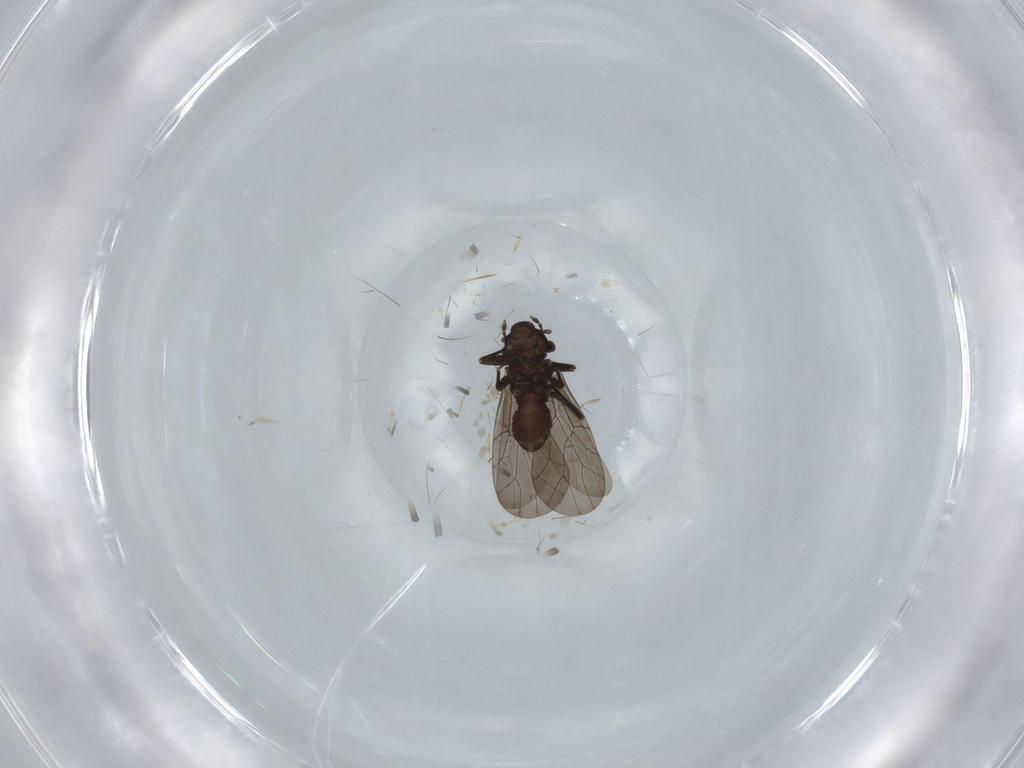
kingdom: Animalia
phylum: Arthropoda
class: Insecta
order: Psocodea
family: Lepidopsocidae
